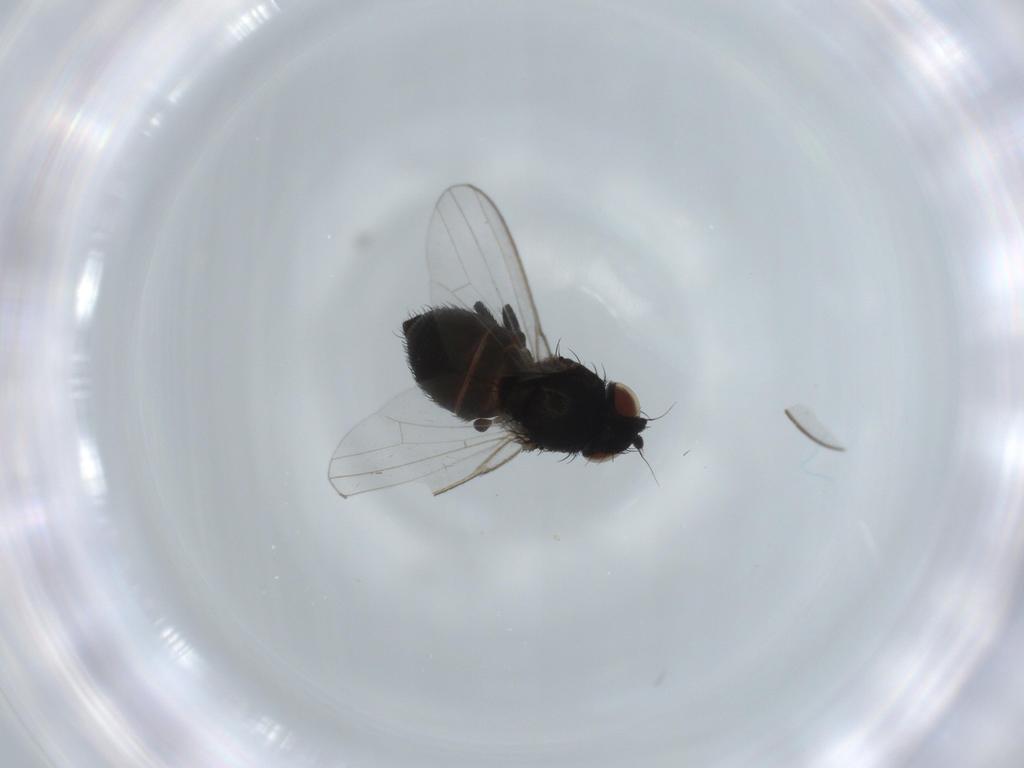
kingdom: Animalia
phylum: Arthropoda
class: Insecta
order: Diptera
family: Milichiidae
